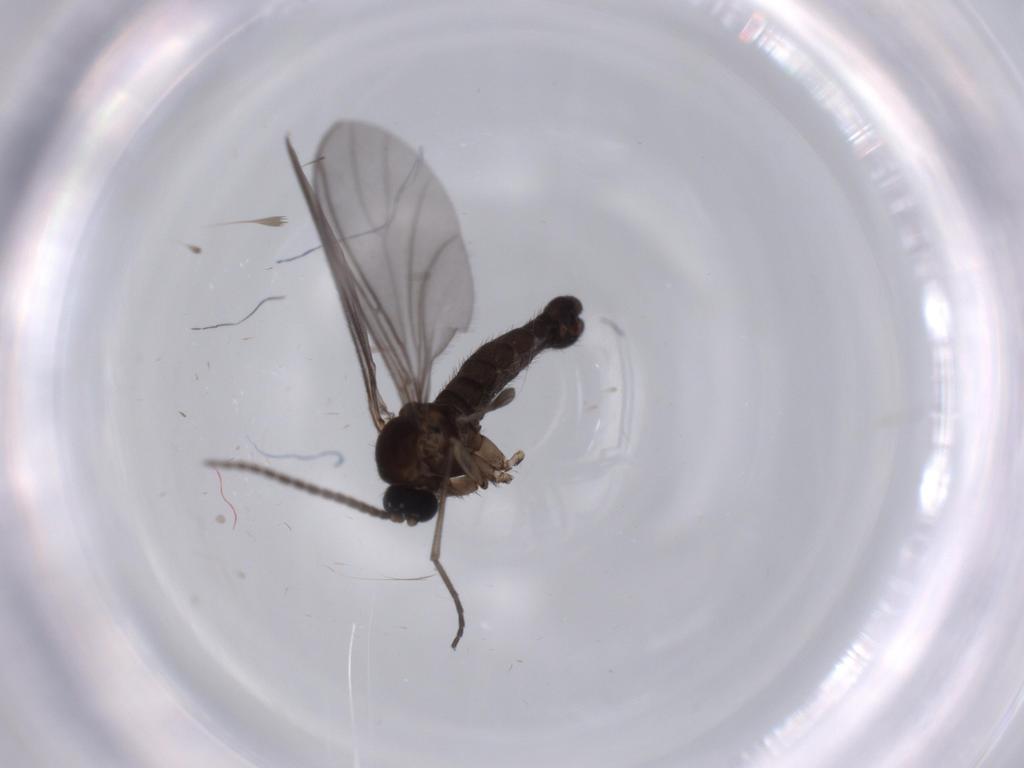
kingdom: Animalia
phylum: Arthropoda
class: Insecta
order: Diptera
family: Sciaridae
